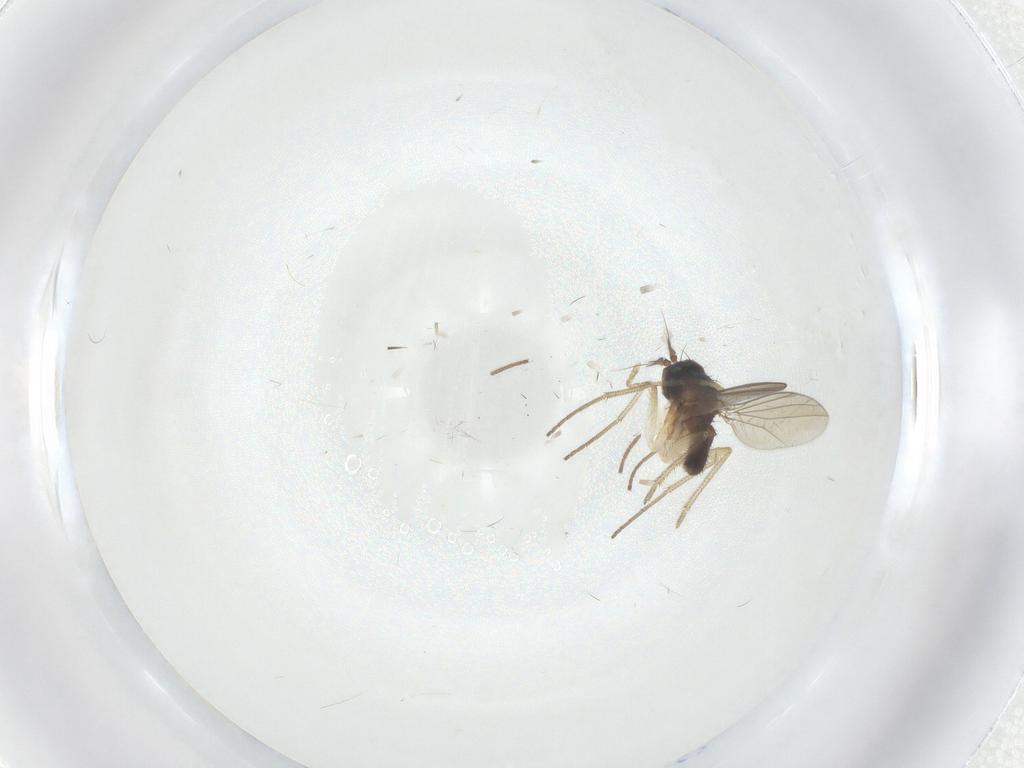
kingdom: Animalia
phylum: Arthropoda
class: Insecta
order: Diptera
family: Dolichopodidae
